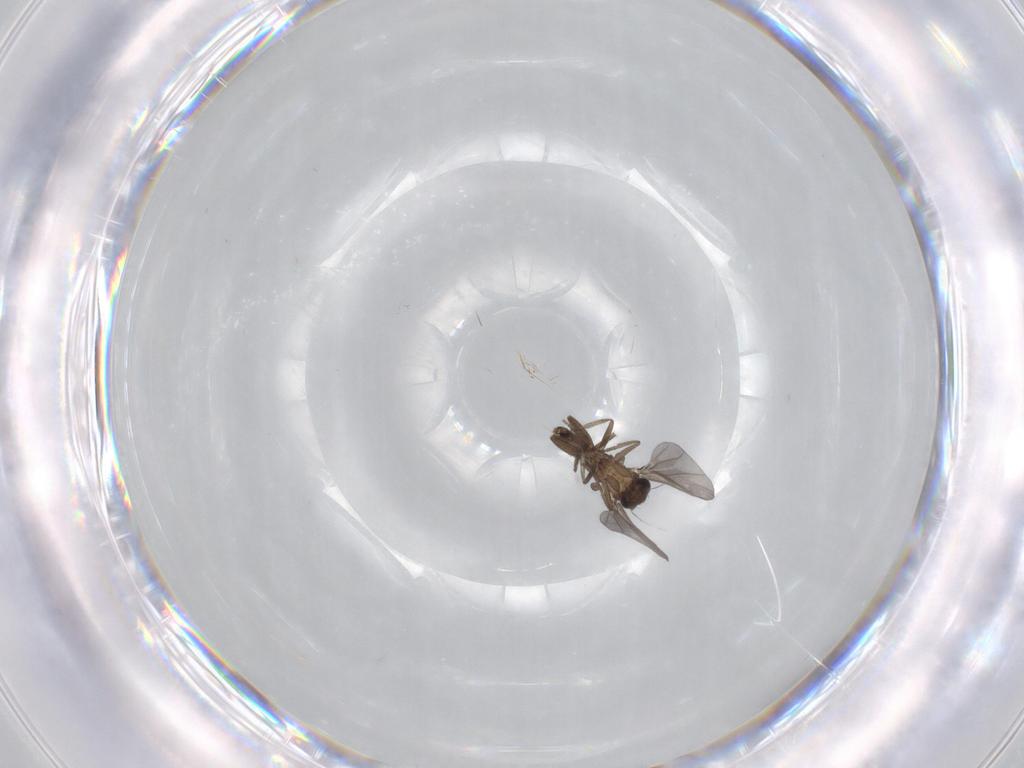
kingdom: Animalia
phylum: Arthropoda
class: Insecta
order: Diptera
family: Phoridae
